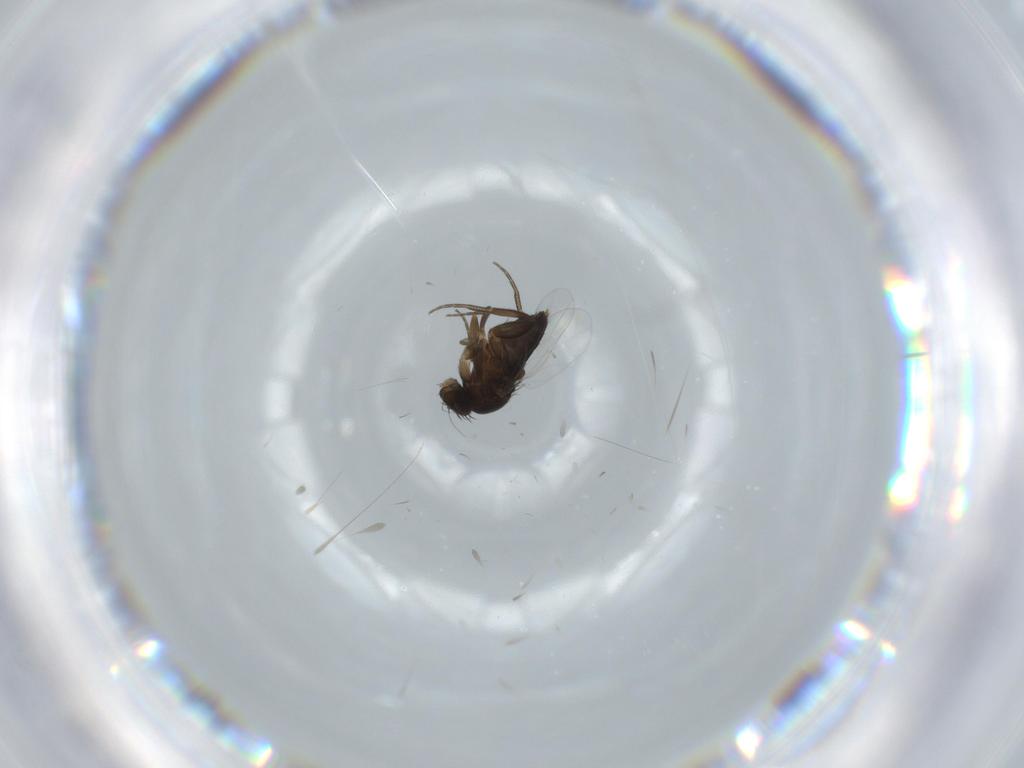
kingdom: Animalia
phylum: Arthropoda
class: Insecta
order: Diptera
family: Phoridae
